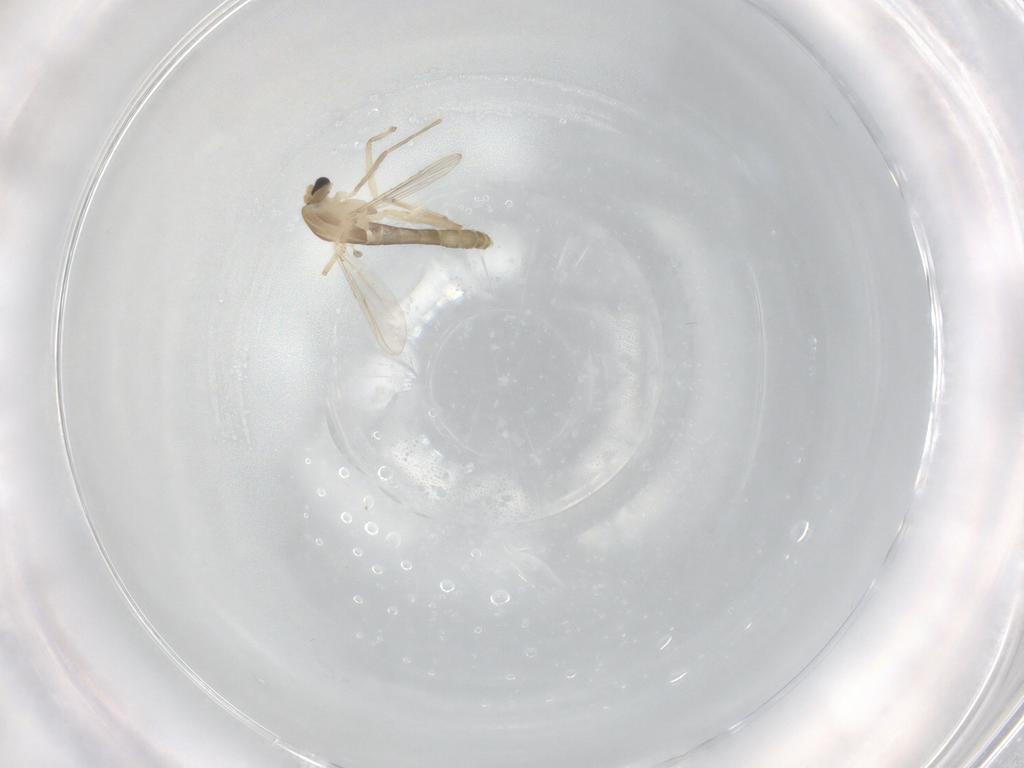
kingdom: Animalia
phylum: Arthropoda
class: Insecta
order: Diptera
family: Chironomidae
